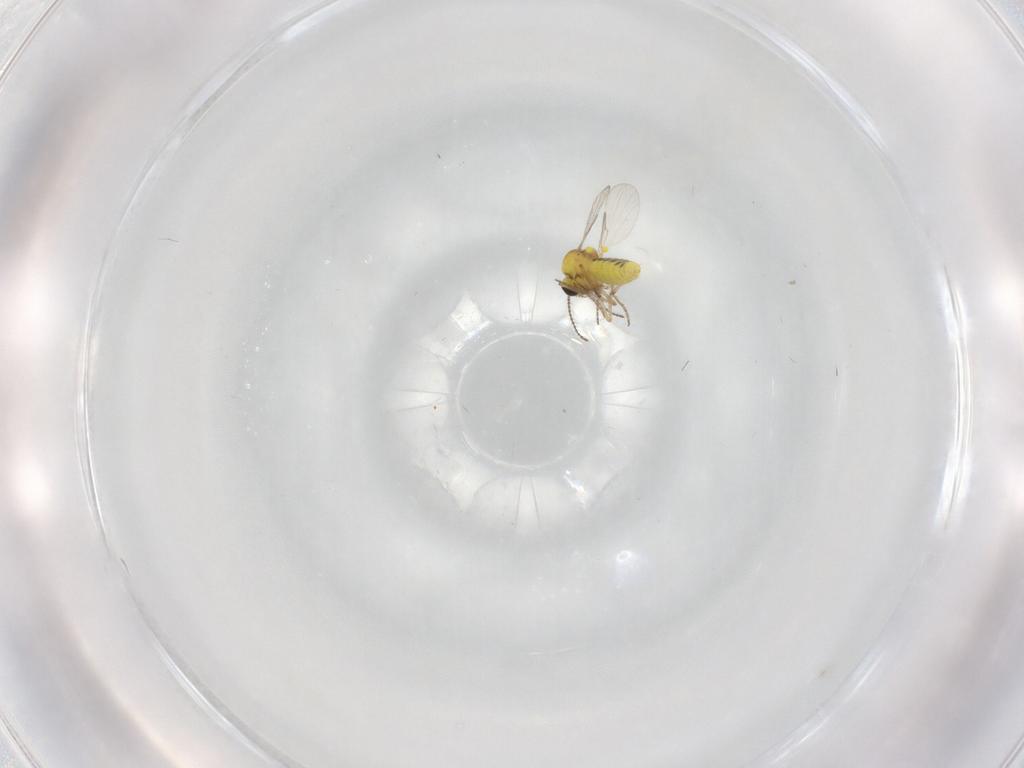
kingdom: Animalia
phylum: Arthropoda
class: Insecta
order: Diptera
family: Ceratopogonidae
